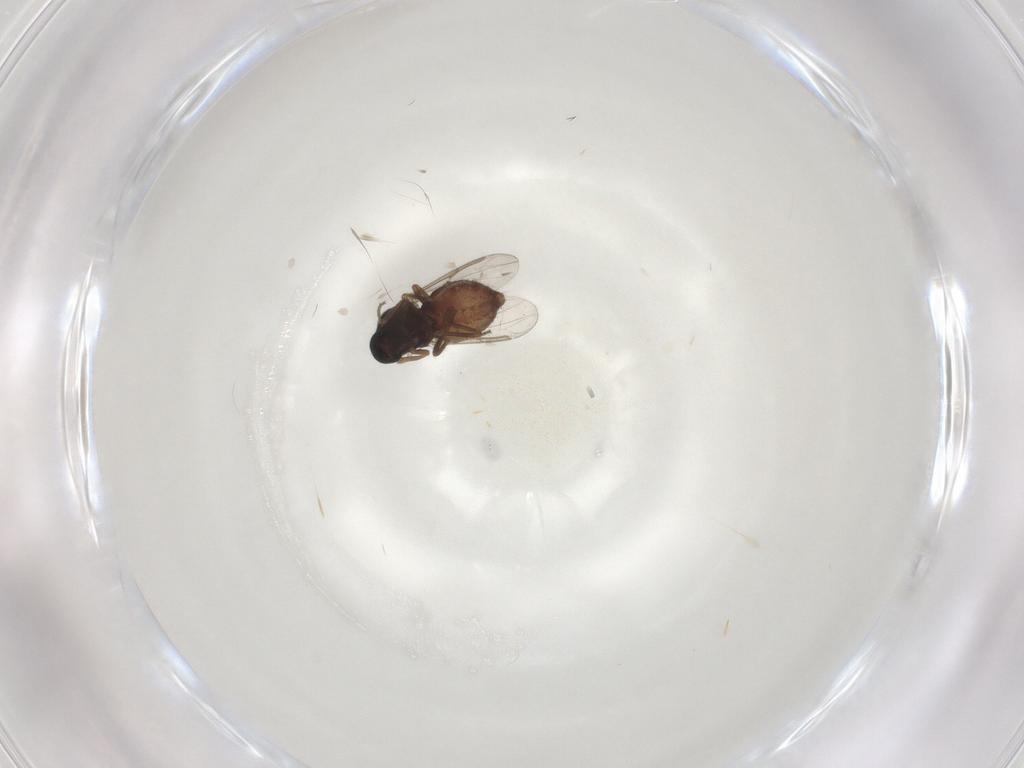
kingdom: Animalia
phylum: Arthropoda
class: Insecta
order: Diptera
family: Ceratopogonidae
